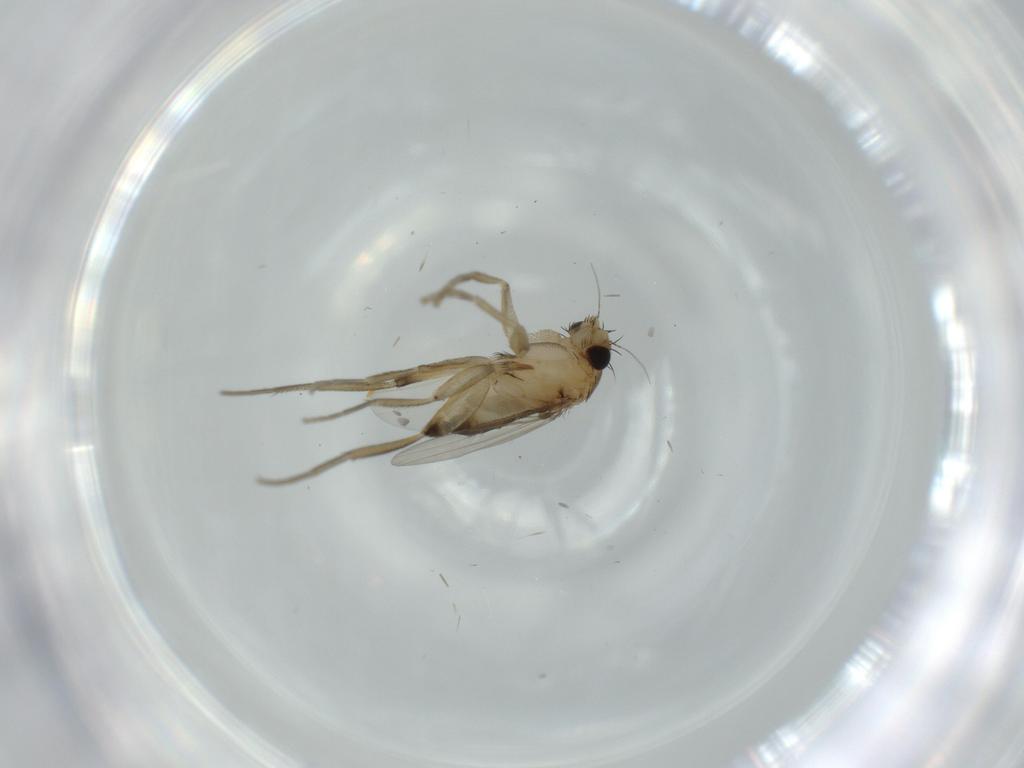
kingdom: Animalia
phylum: Arthropoda
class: Insecta
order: Diptera
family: Phoridae
